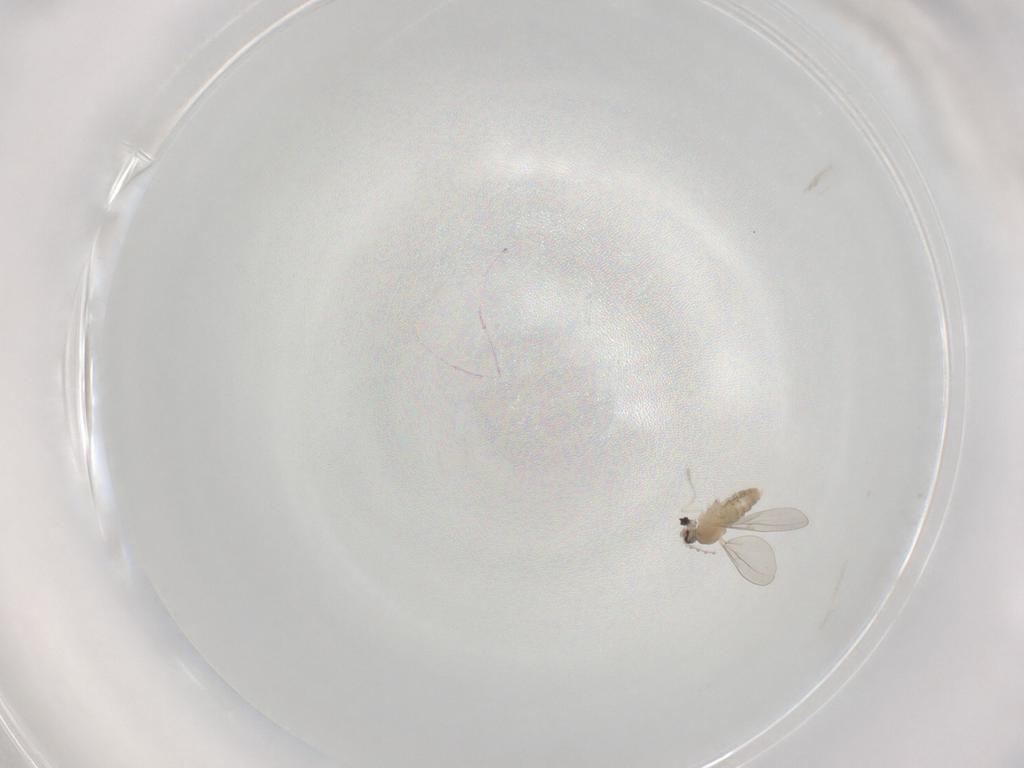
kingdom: Animalia
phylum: Arthropoda
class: Insecta
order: Diptera
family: Cecidomyiidae
